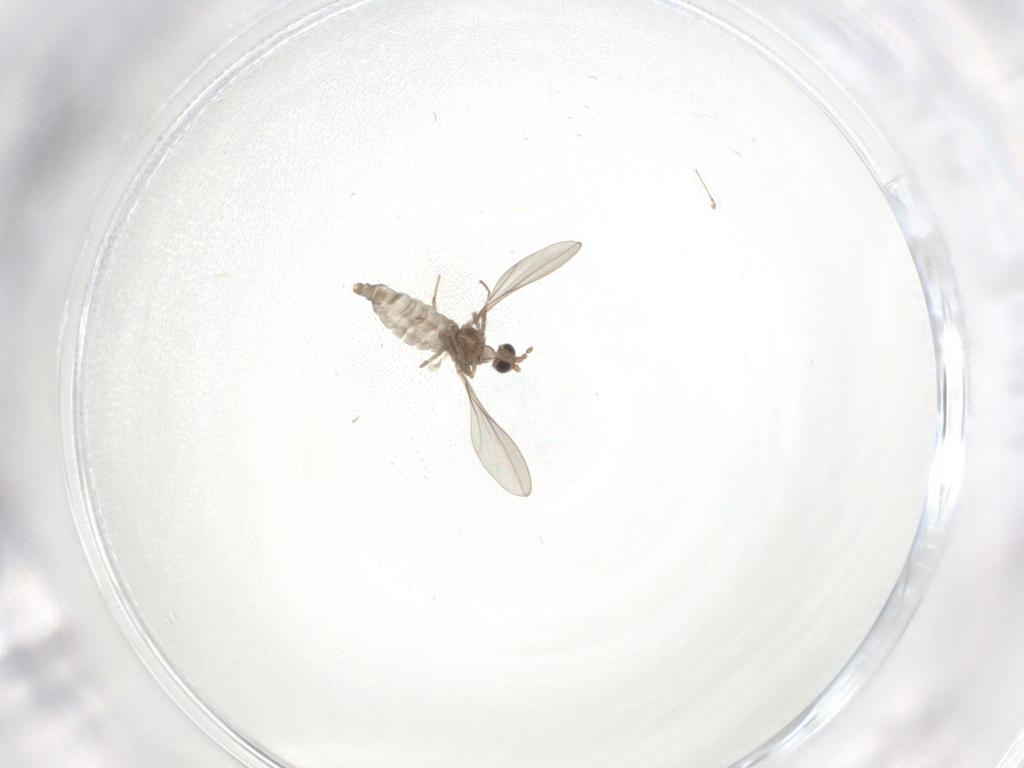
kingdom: Animalia
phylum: Arthropoda
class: Insecta
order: Diptera
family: Cecidomyiidae
